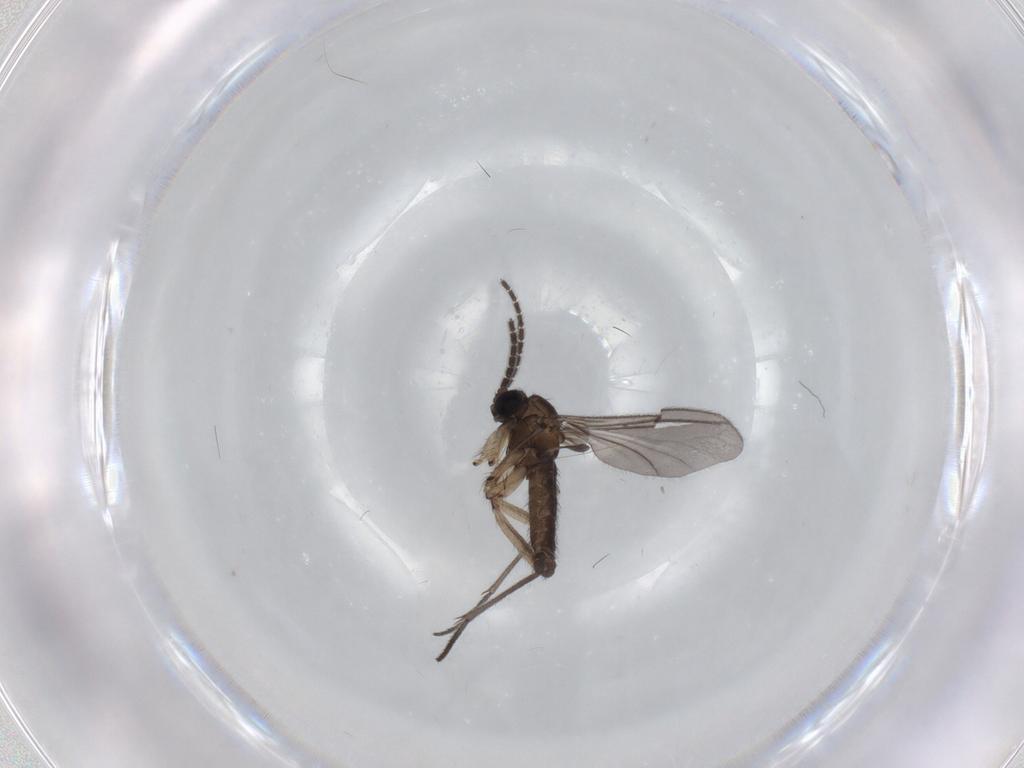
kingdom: Animalia
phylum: Arthropoda
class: Insecta
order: Diptera
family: Sciaridae
